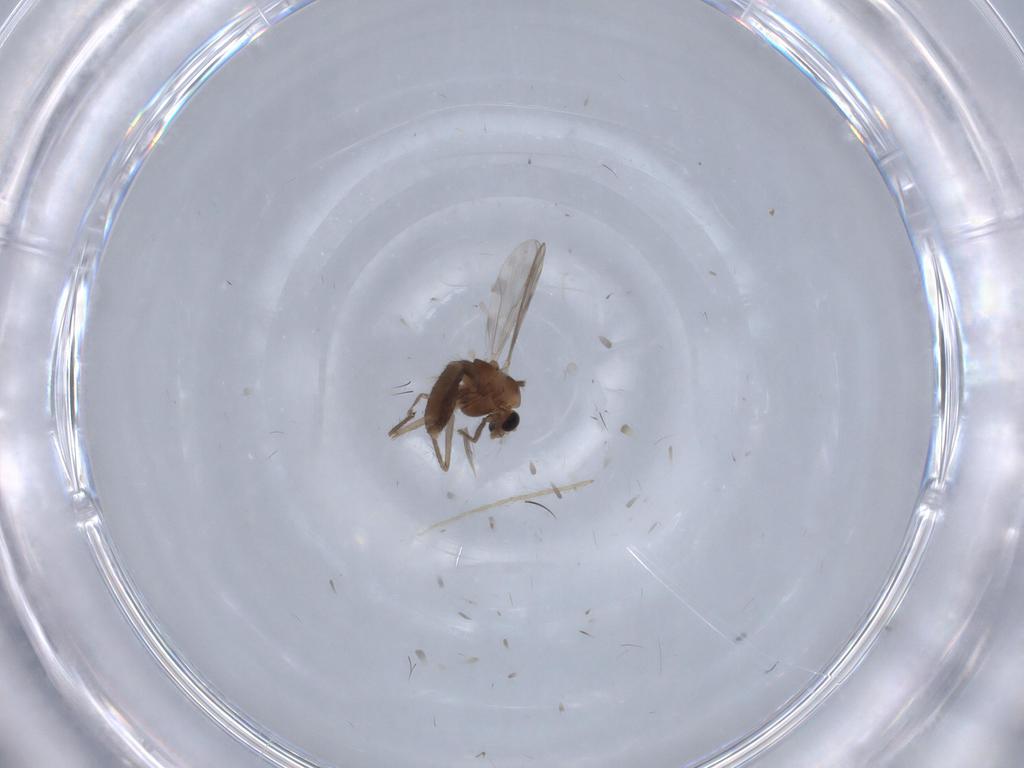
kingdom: Animalia
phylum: Arthropoda
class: Insecta
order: Diptera
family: Chironomidae
